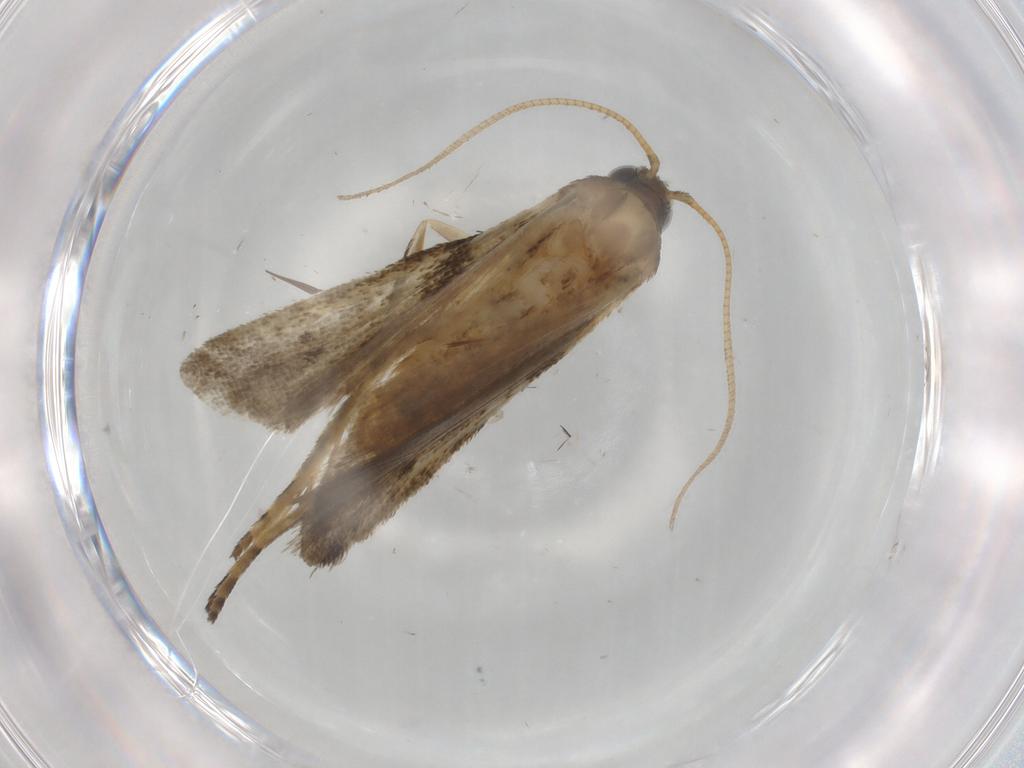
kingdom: Animalia
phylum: Arthropoda
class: Insecta
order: Lepidoptera
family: Noctuidae
